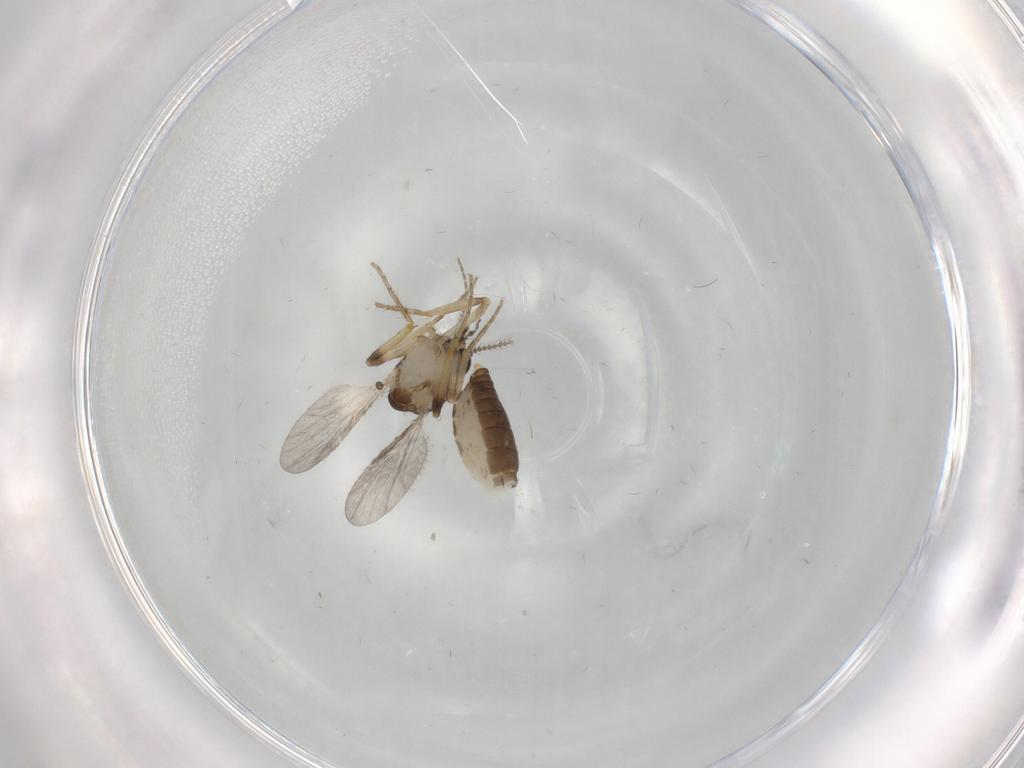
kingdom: Animalia
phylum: Arthropoda
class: Insecta
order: Diptera
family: Ceratopogonidae
